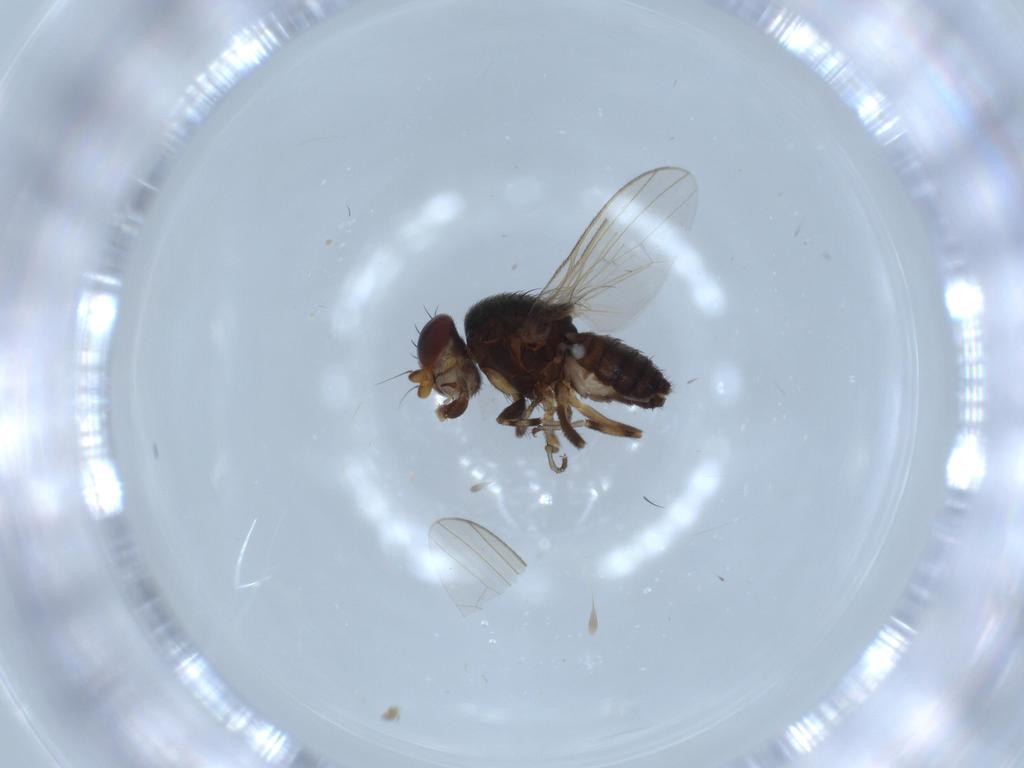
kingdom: Animalia
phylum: Arthropoda
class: Insecta
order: Diptera
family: Heleomyzidae
